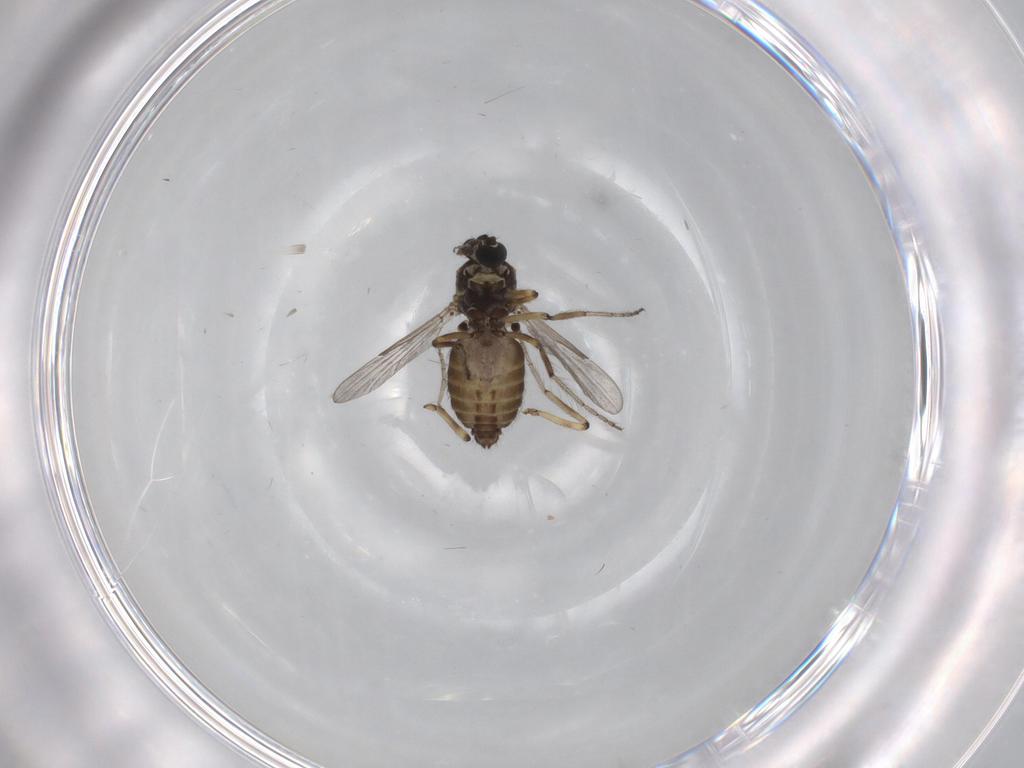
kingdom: Animalia
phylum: Arthropoda
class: Insecta
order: Diptera
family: Ceratopogonidae
